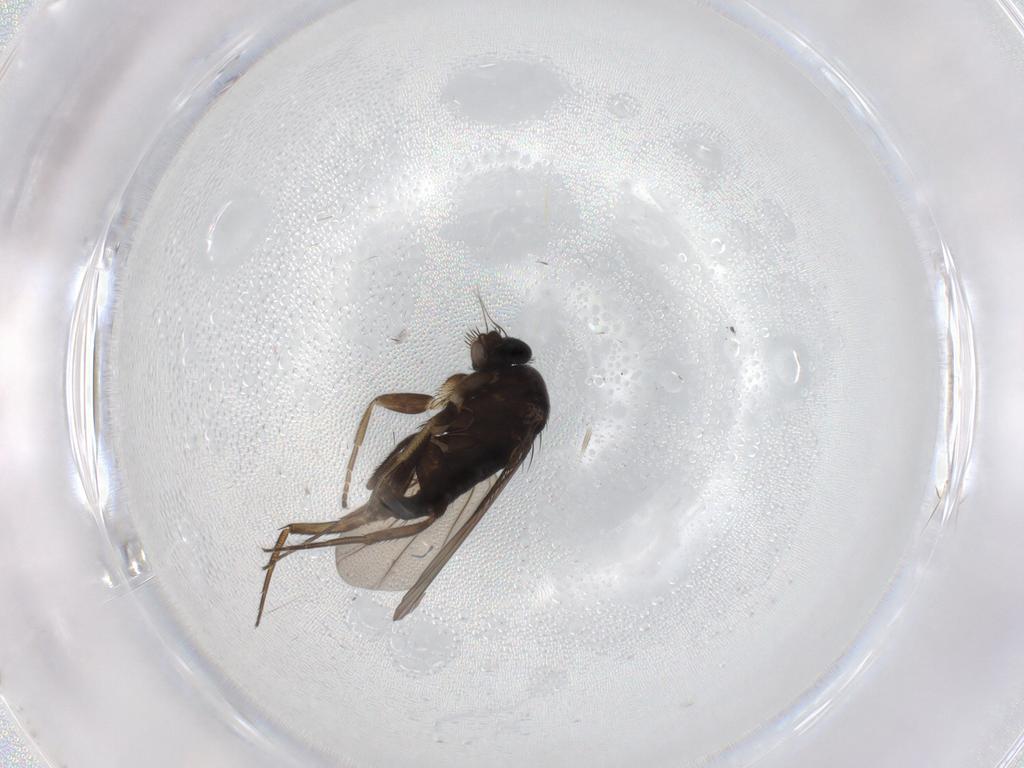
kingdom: Animalia
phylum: Arthropoda
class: Insecta
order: Diptera
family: Phoridae
